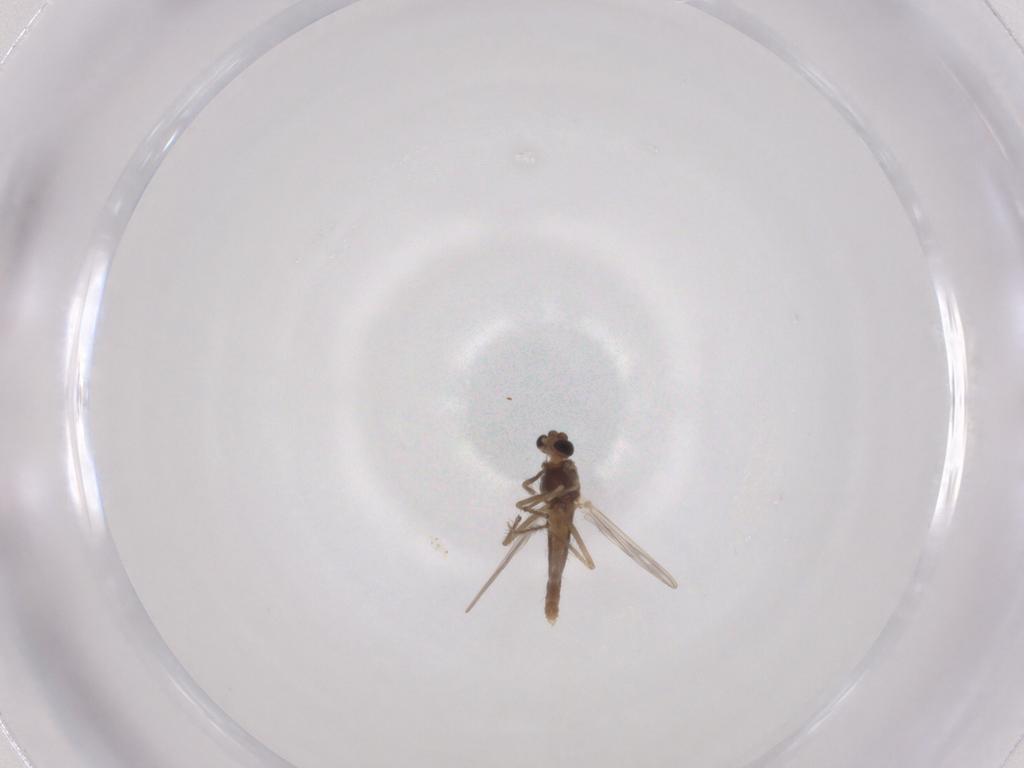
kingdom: Animalia
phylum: Arthropoda
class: Insecta
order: Diptera
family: Chironomidae
